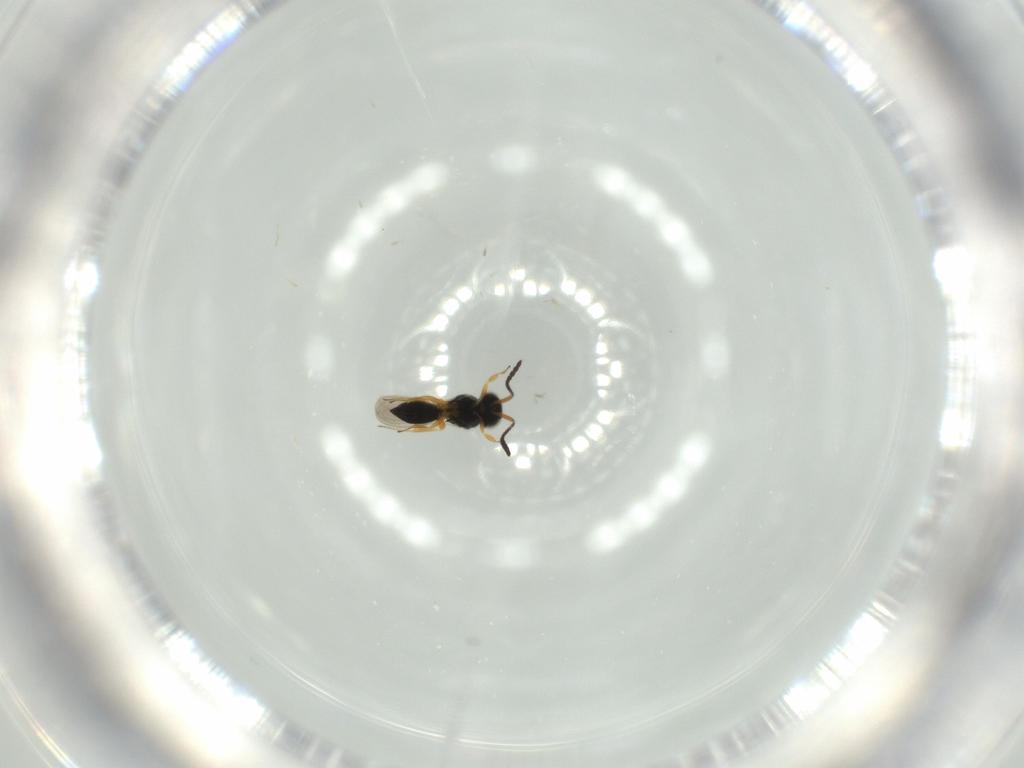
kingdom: Animalia
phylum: Arthropoda
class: Insecta
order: Hymenoptera
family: Scelionidae
